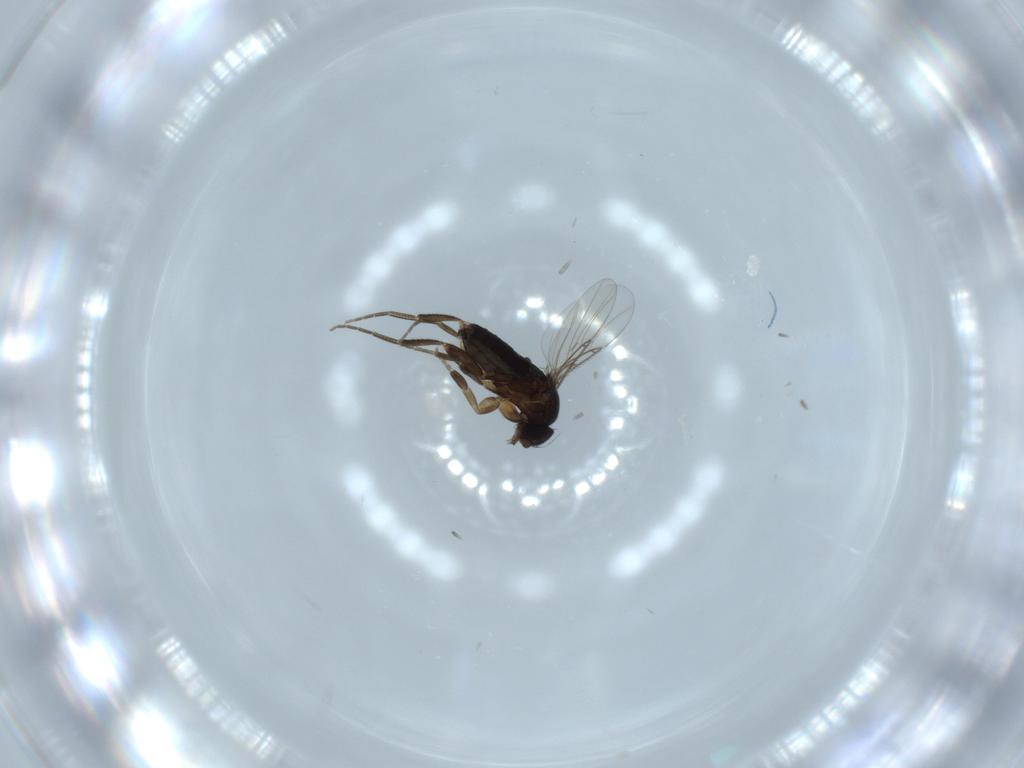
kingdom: Animalia
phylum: Arthropoda
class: Insecta
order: Diptera
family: Phoridae
